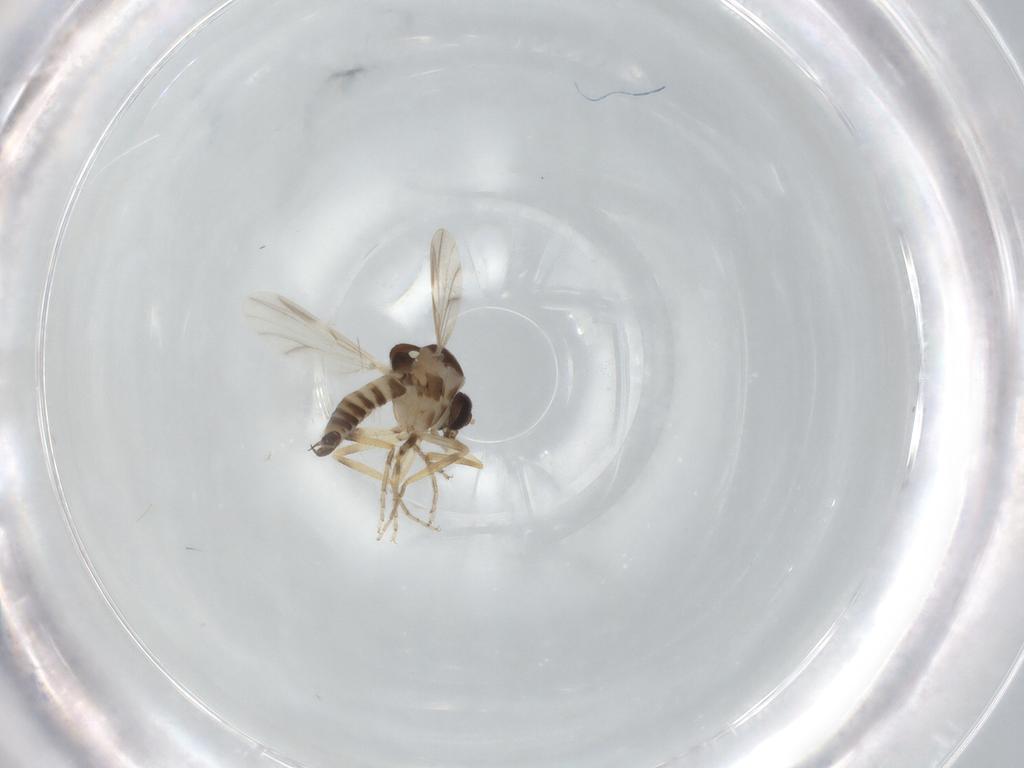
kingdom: Animalia
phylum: Arthropoda
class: Insecta
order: Diptera
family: Ceratopogonidae
